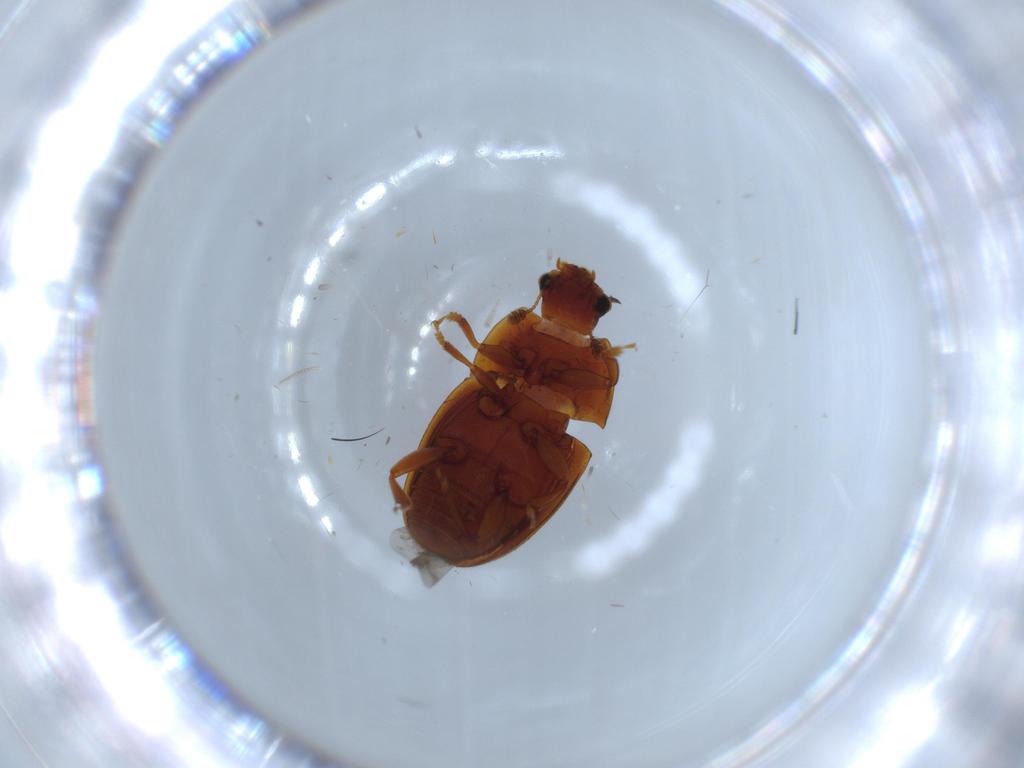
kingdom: Animalia
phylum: Arthropoda
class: Insecta
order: Coleoptera
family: Ptilodactylidae
